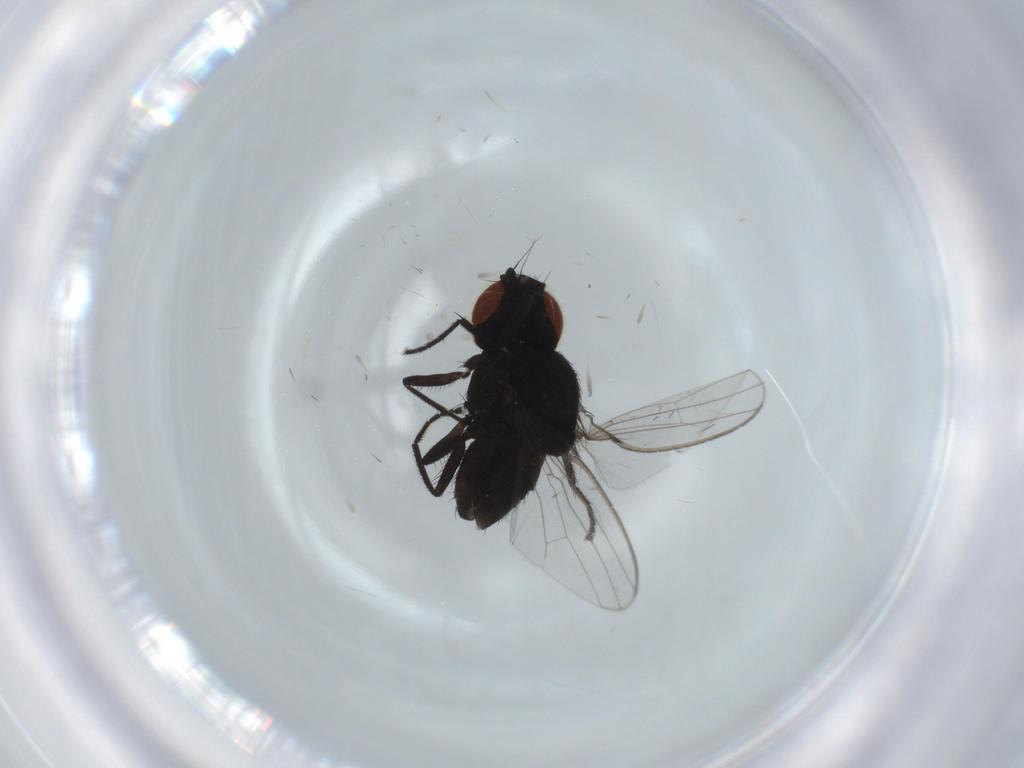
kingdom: Animalia
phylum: Arthropoda
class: Insecta
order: Diptera
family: Milichiidae
